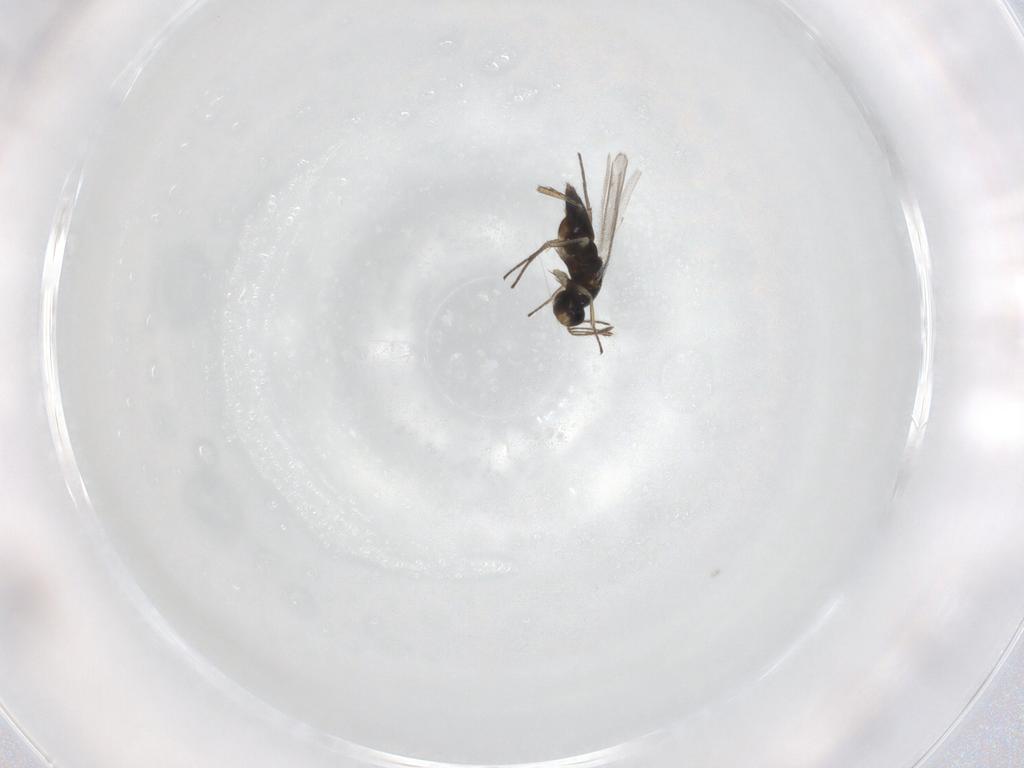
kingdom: Animalia
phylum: Arthropoda
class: Insecta
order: Hymenoptera
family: Eulophidae
